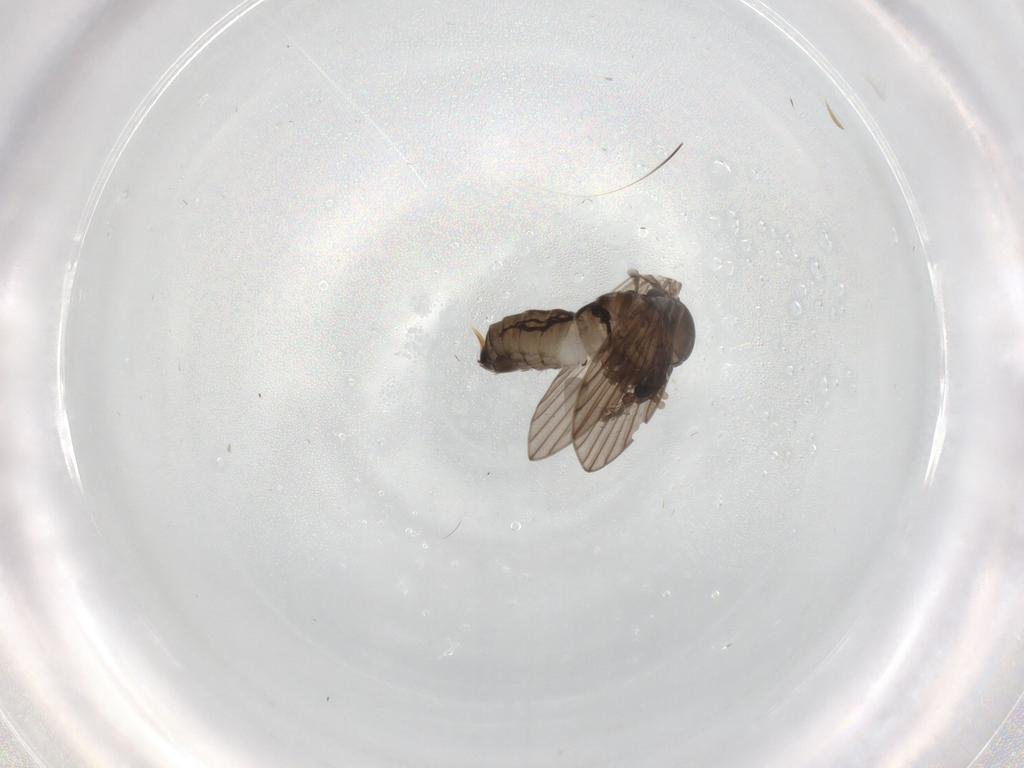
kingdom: Animalia
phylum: Arthropoda
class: Insecta
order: Diptera
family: Psychodidae
